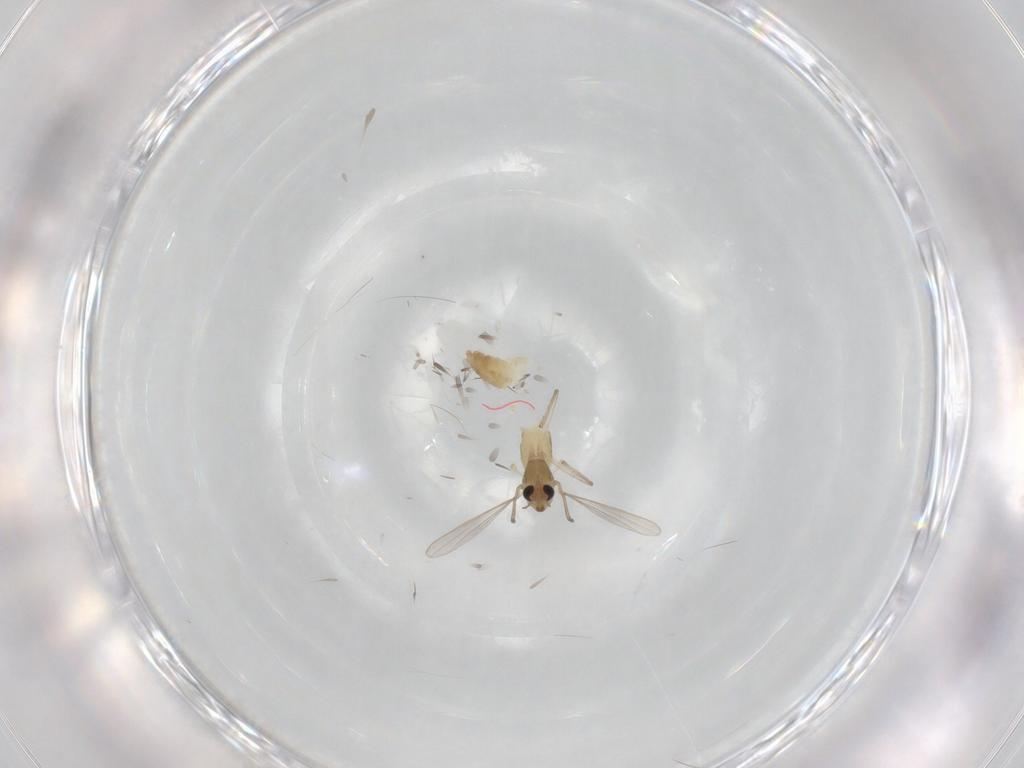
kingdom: Animalia
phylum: Arthropoda
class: Insecta
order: Diptera
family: Chironomidae
